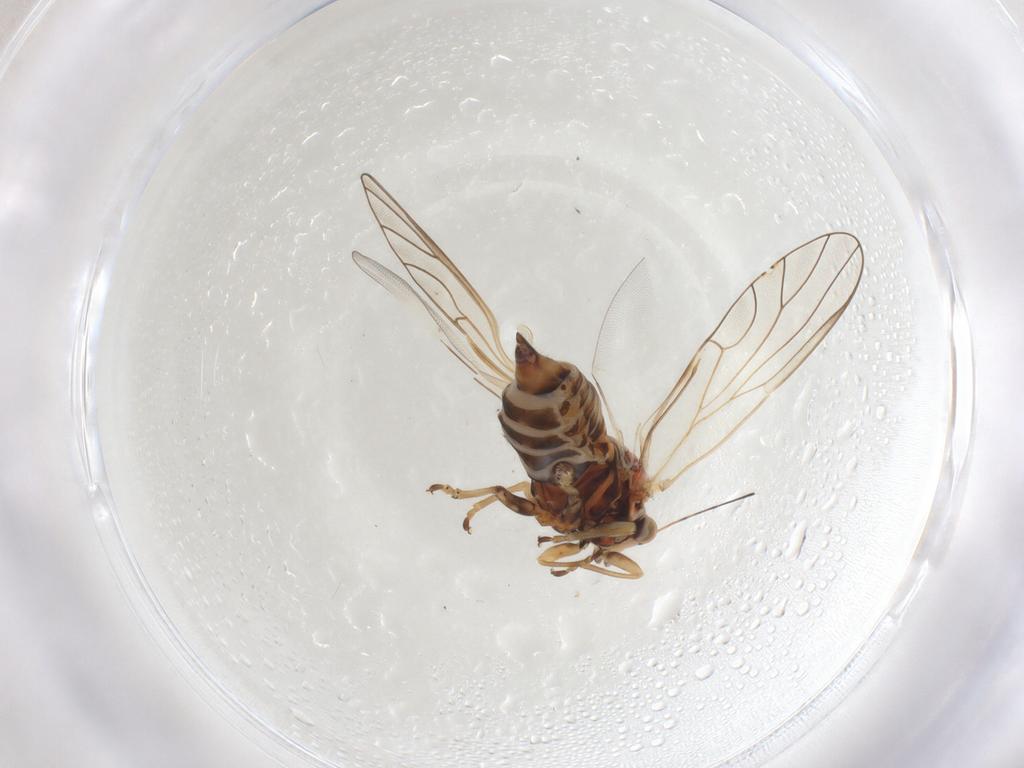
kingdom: Animalia
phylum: Arthropoda
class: Insecta
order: Hemiptera
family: Psyllidae
